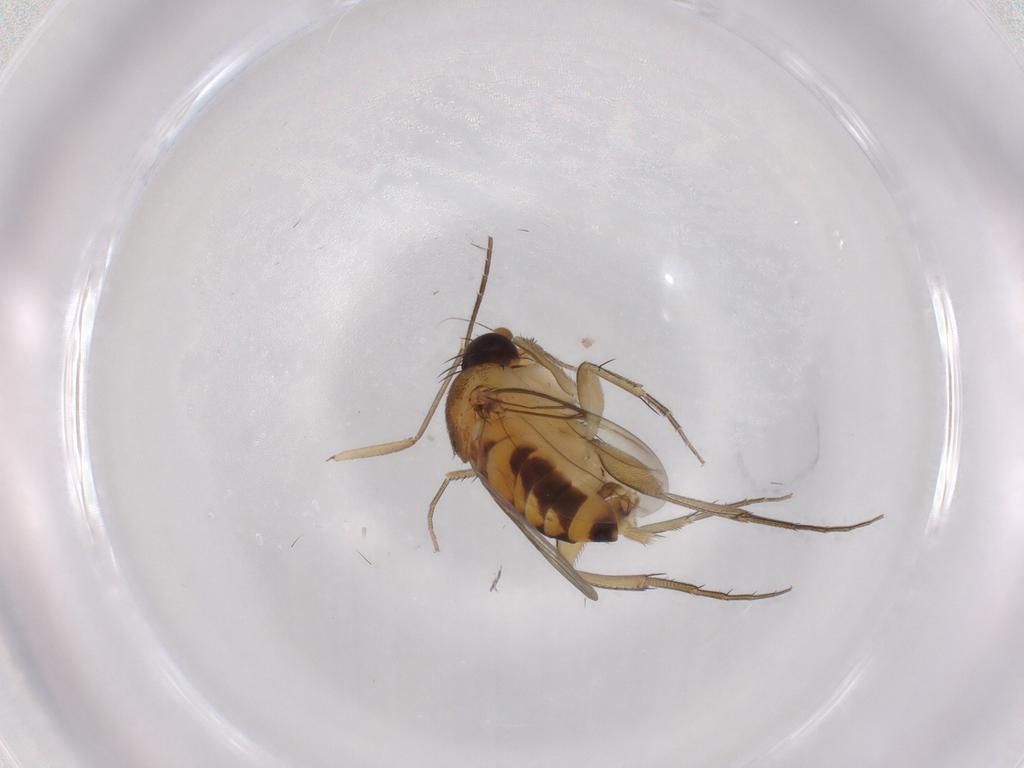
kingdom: Animalia
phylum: Arthropoda
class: Insecta
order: Diptera
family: Phoridae
